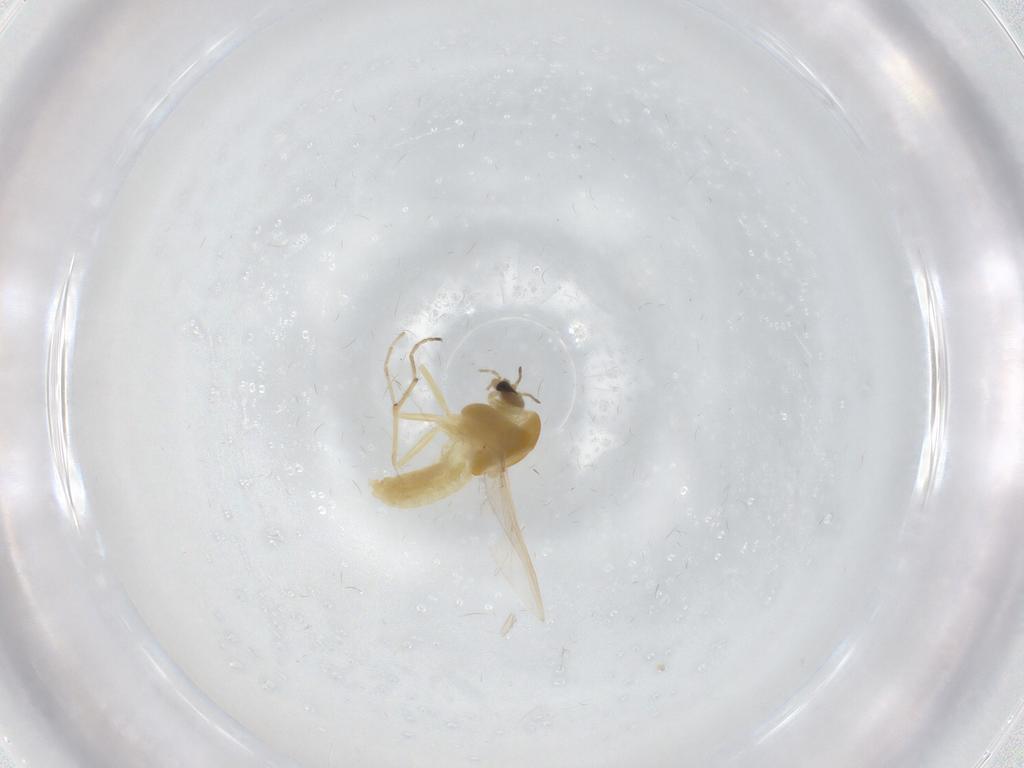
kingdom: Animalia
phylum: Arthropoda
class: Insecta
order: Diptera
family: Chironomidae
